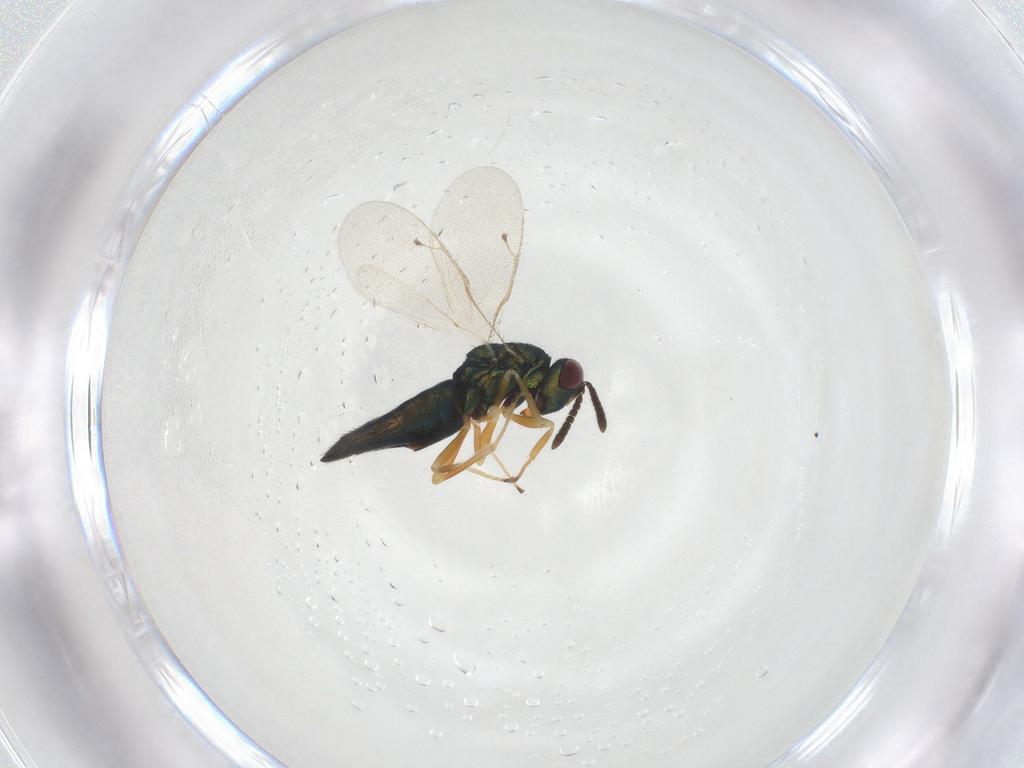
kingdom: Animalia
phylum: Arthropoda
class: Insecta
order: Hymenoptera
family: Pteromalidae
